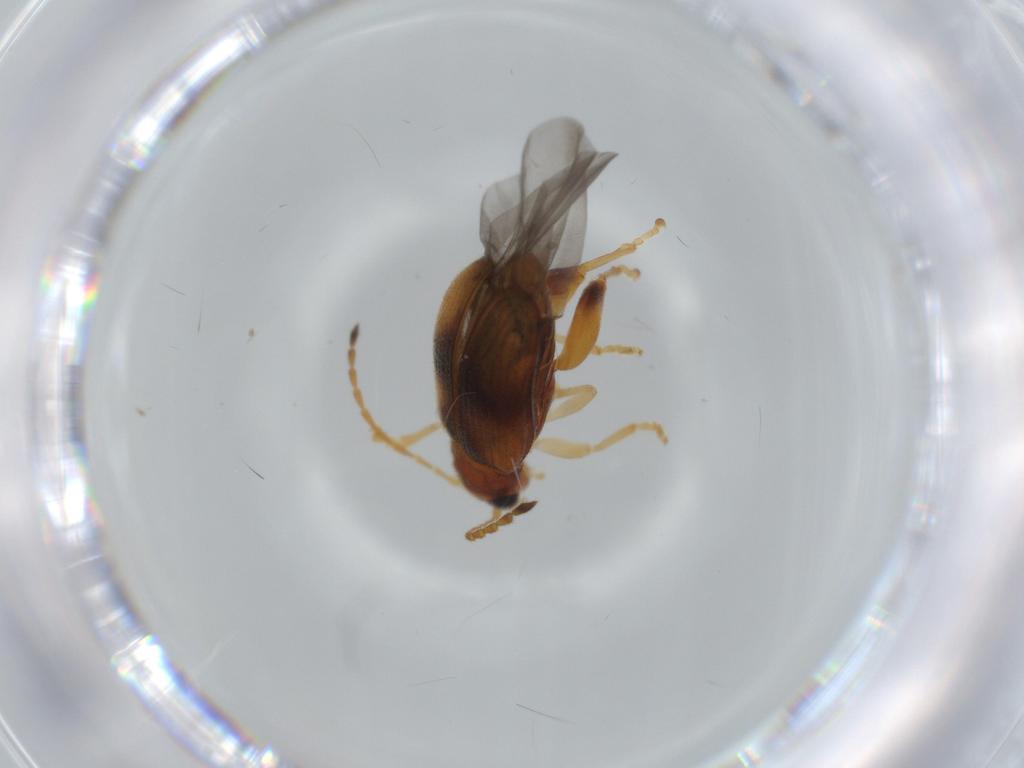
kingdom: Animalia
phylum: Arthropoda
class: Insecta
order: Coleoptera
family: Chrysomelidae
